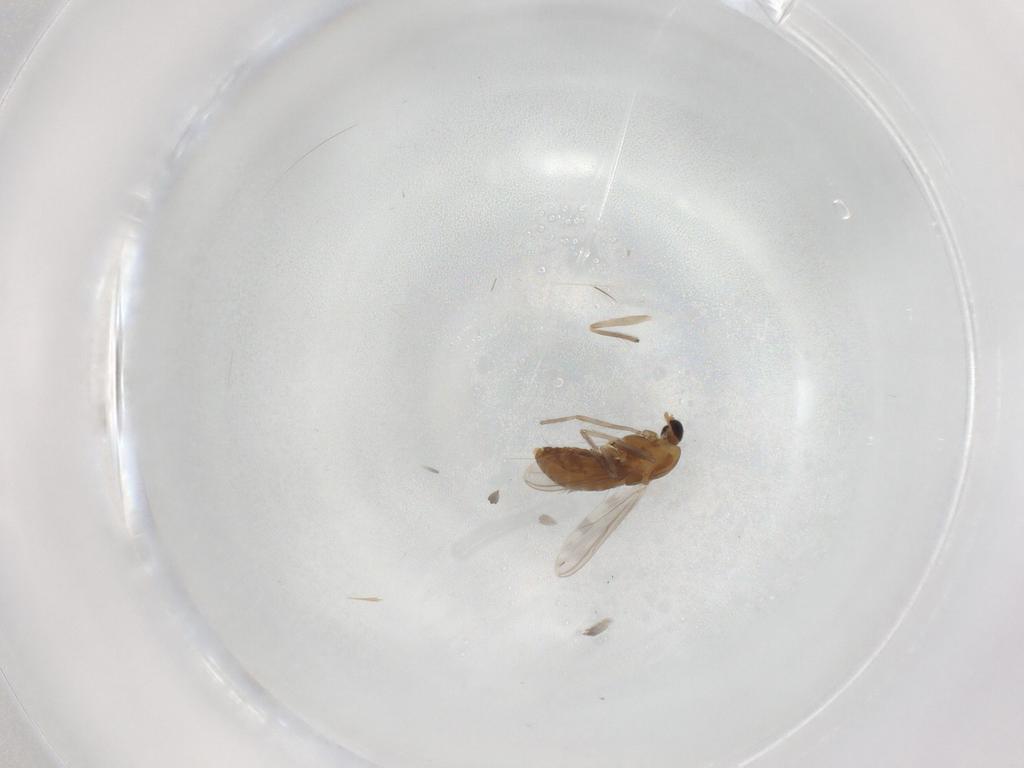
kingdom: Animalia
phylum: Arthropoda
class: Insecta
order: Diptera
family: Chironomidae
